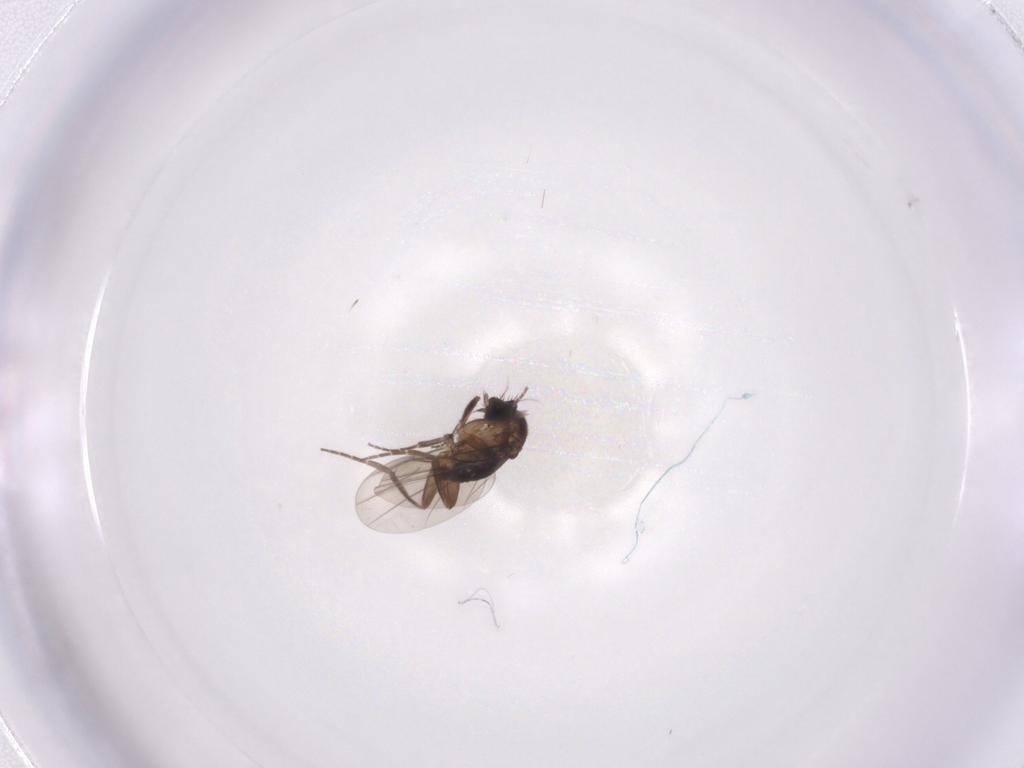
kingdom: Animalia
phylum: Arthropoda
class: Insecta
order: Diptera
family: Phoridae
